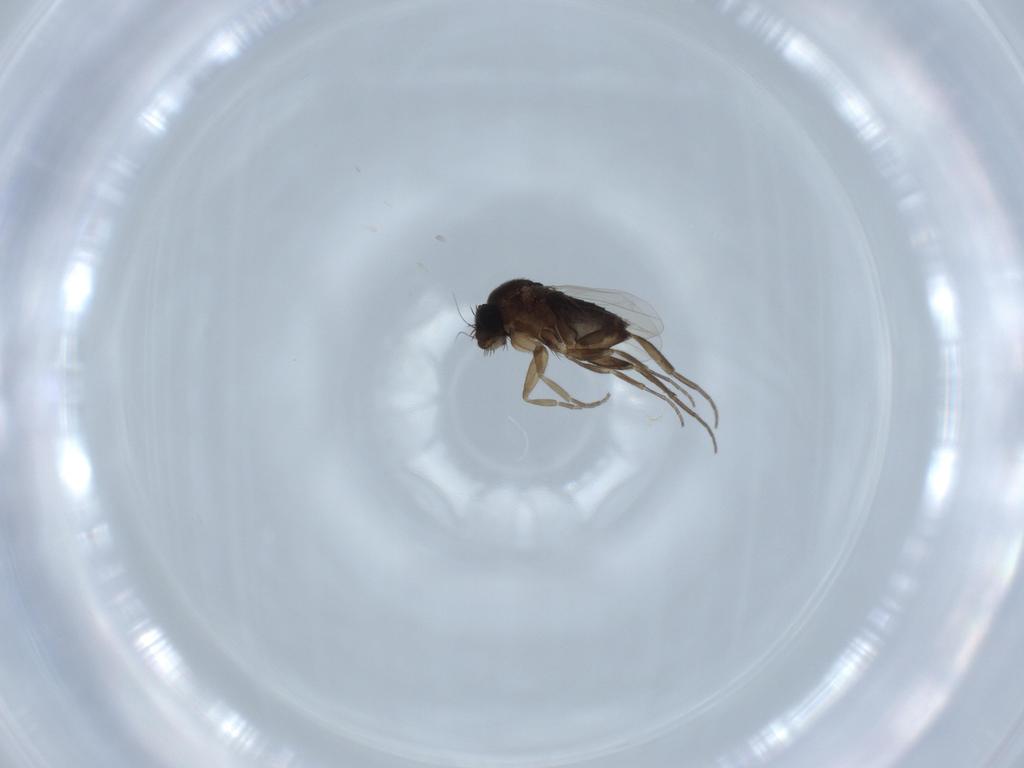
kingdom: Animalia
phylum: Arthropoda
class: Insecta
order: Diptera
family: Phoridae
